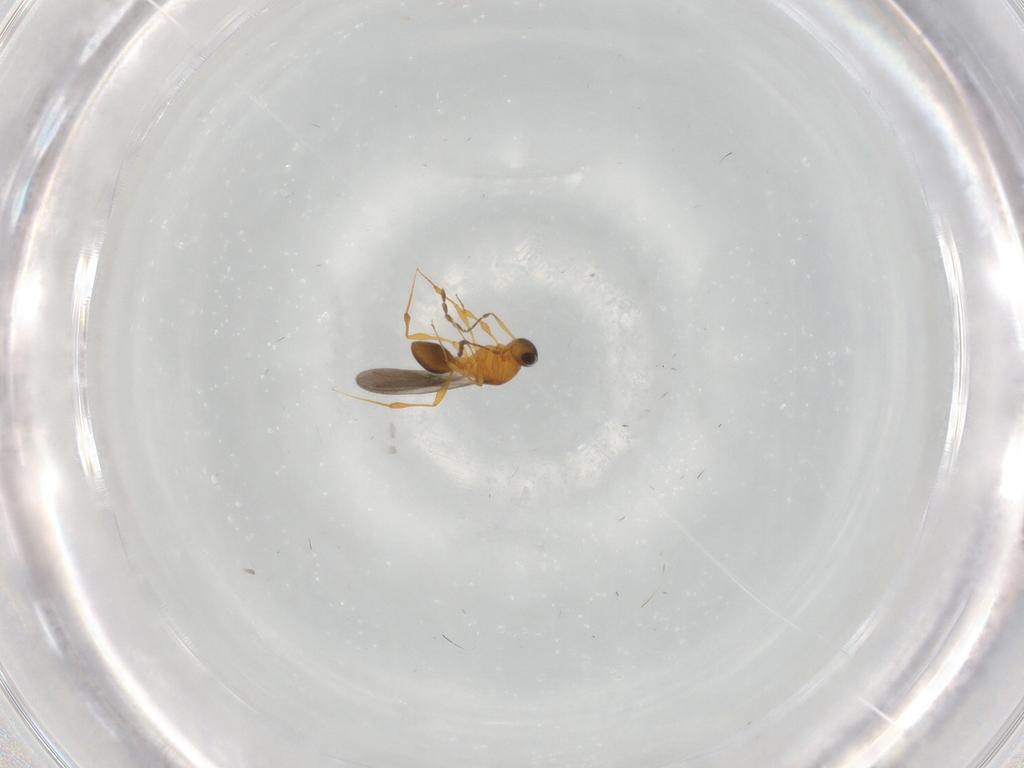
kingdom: Animalia
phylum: Arthropoda
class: Insecta
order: Hymenoptera
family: Platygastridae
